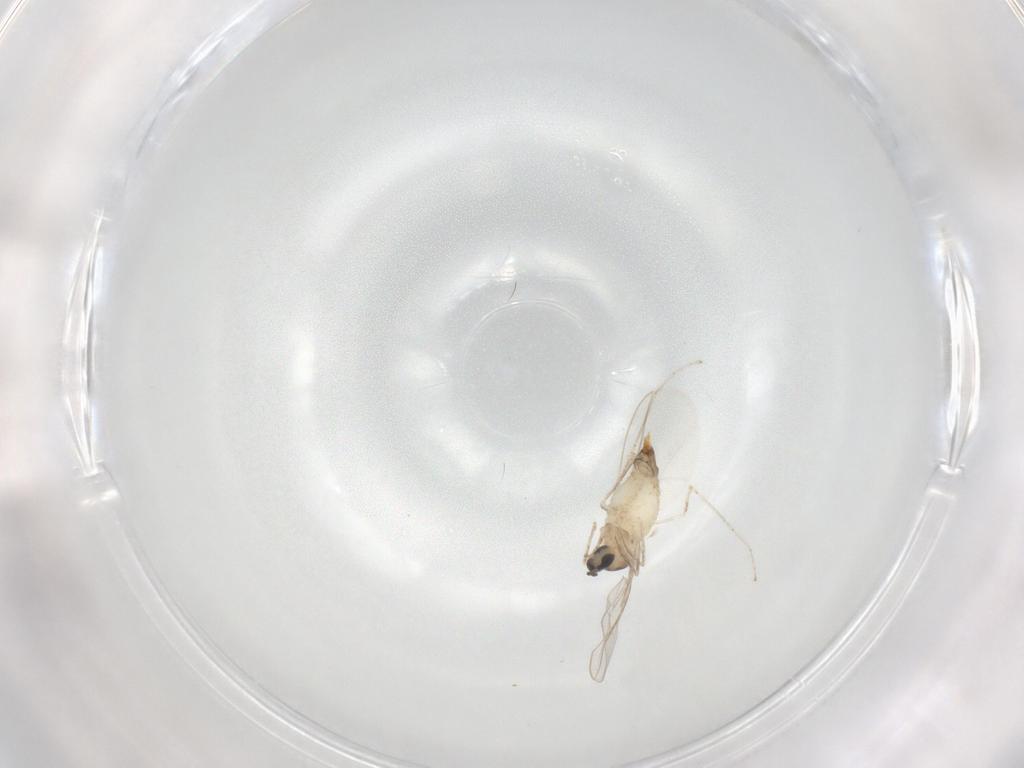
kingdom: Animalia
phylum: Arthropoda
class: Insecta
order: Diptera
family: Cecidomyiidae
